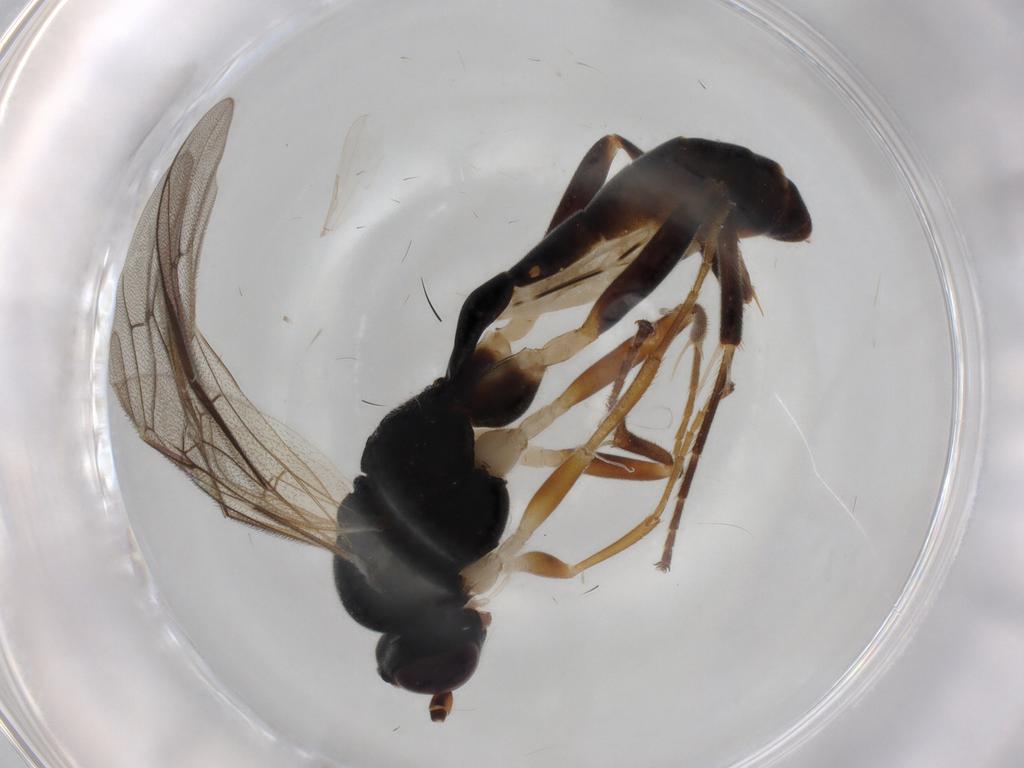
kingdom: Animalia
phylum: Arthropoda
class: Insecta
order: Hymenoptera
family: Ichneumonidae
